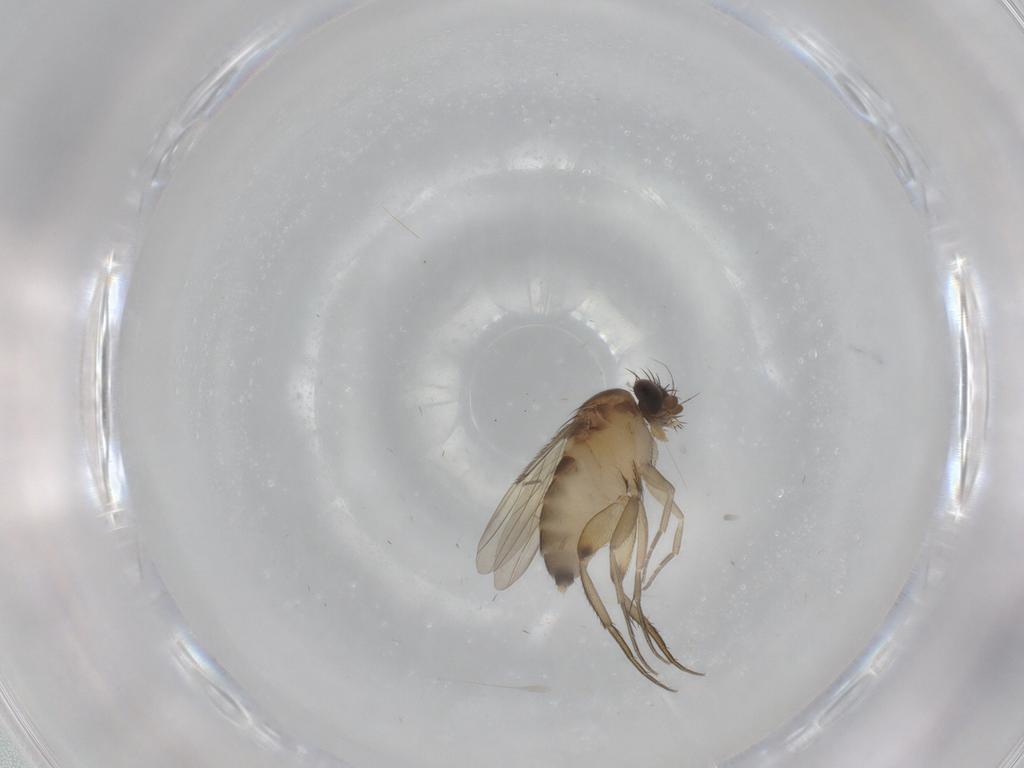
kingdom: Animalia
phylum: Arthropoda
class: Insecta
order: Diptera
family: Phoridae
